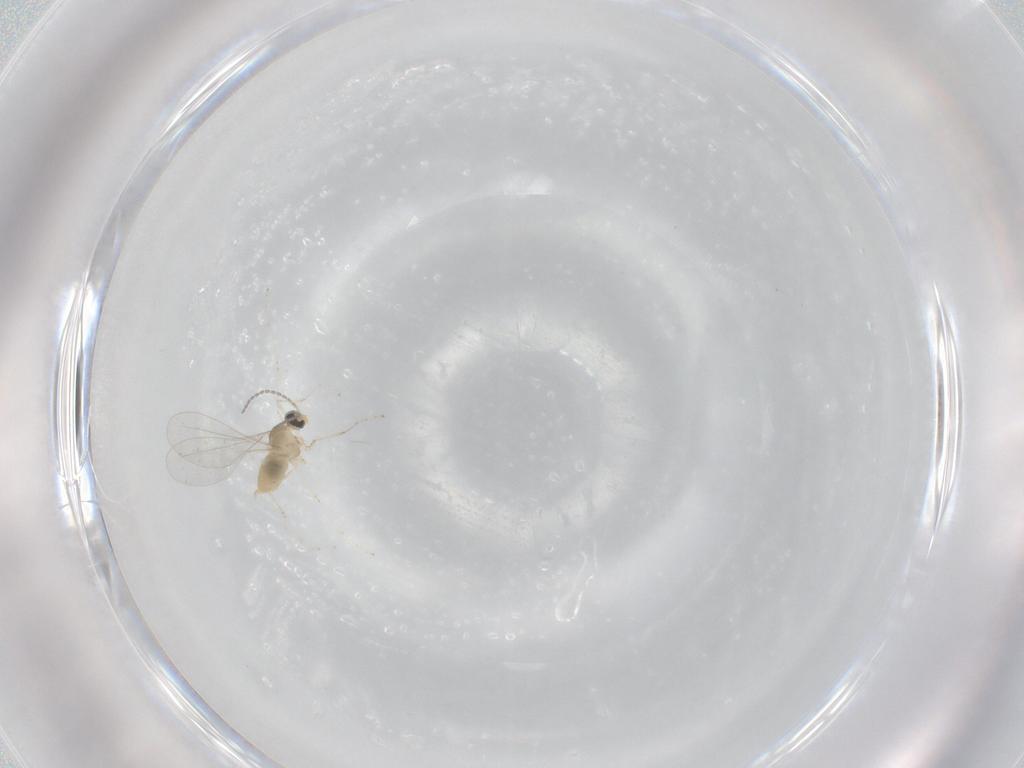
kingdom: Animalia
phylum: Arthropoda
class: Insecta
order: Diptera
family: Cecidomyiidae
